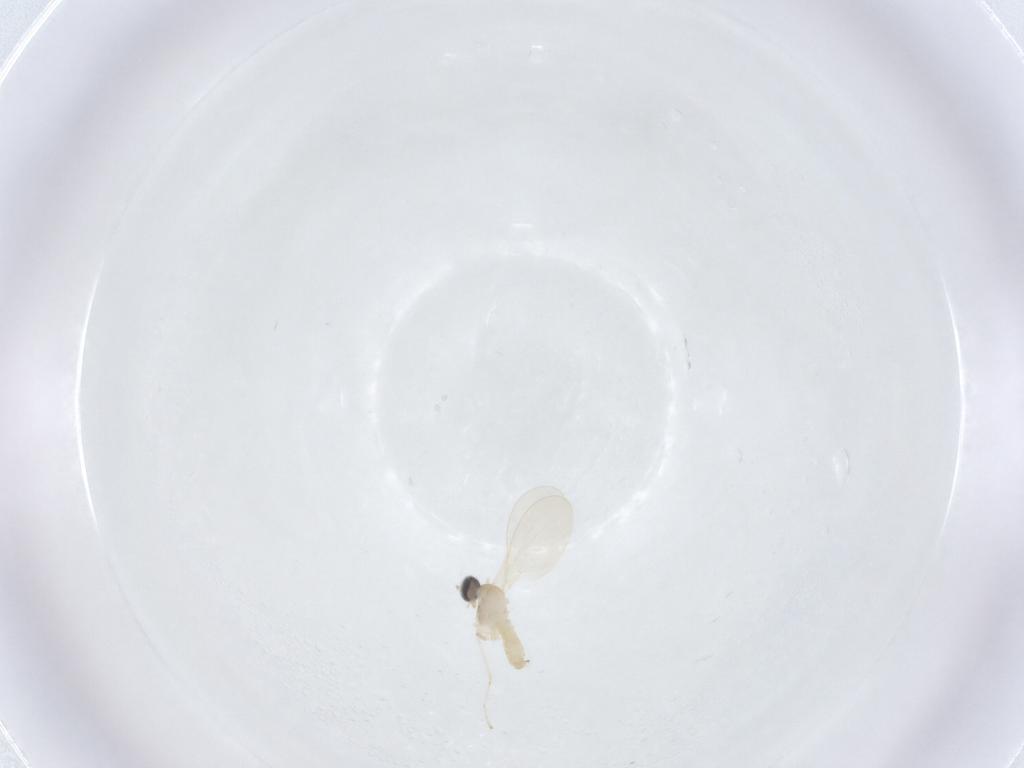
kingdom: Animalia
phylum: Arthropoda
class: Insecta
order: Diptera
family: Cecidomyiidae
